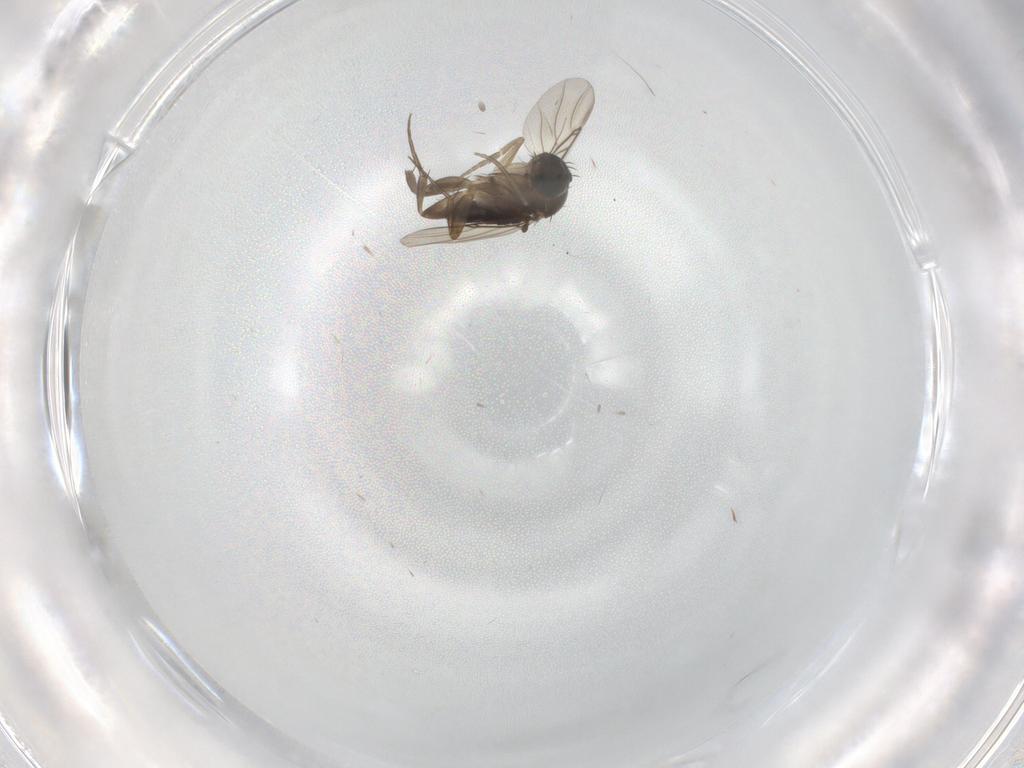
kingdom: Animalia
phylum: Arthropoda
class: Insecta
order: Diptera
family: Phoridae
